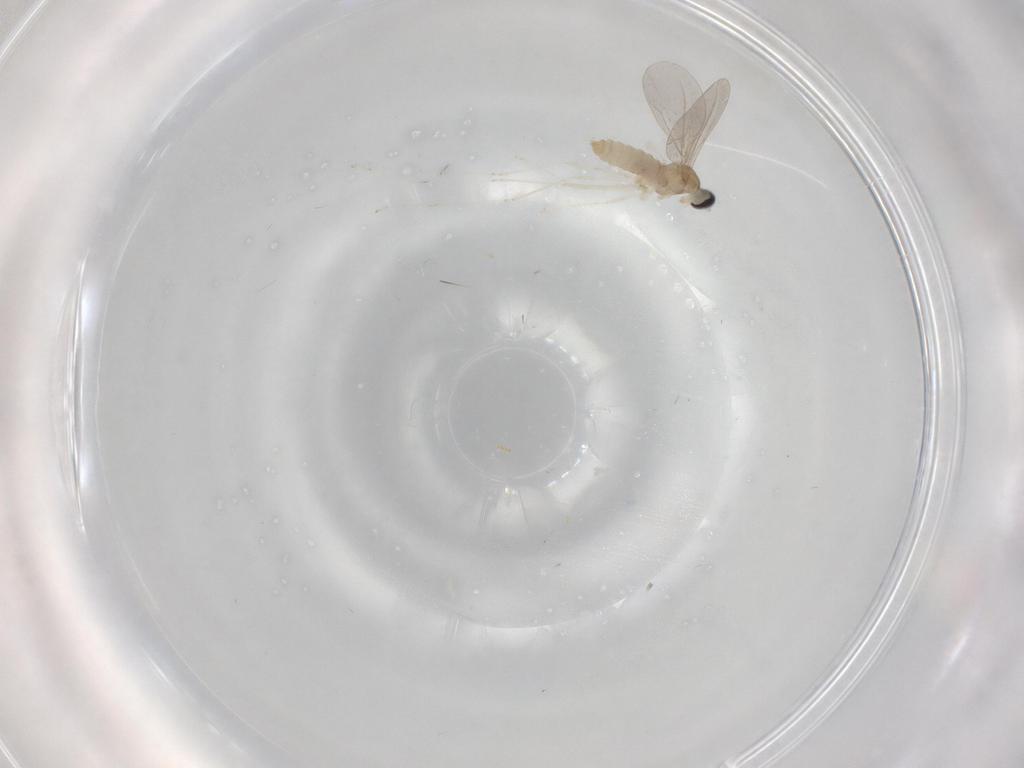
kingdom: Animalia
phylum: Arthropoda
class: Insecta
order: Diptera
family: Cecidomyiidae
